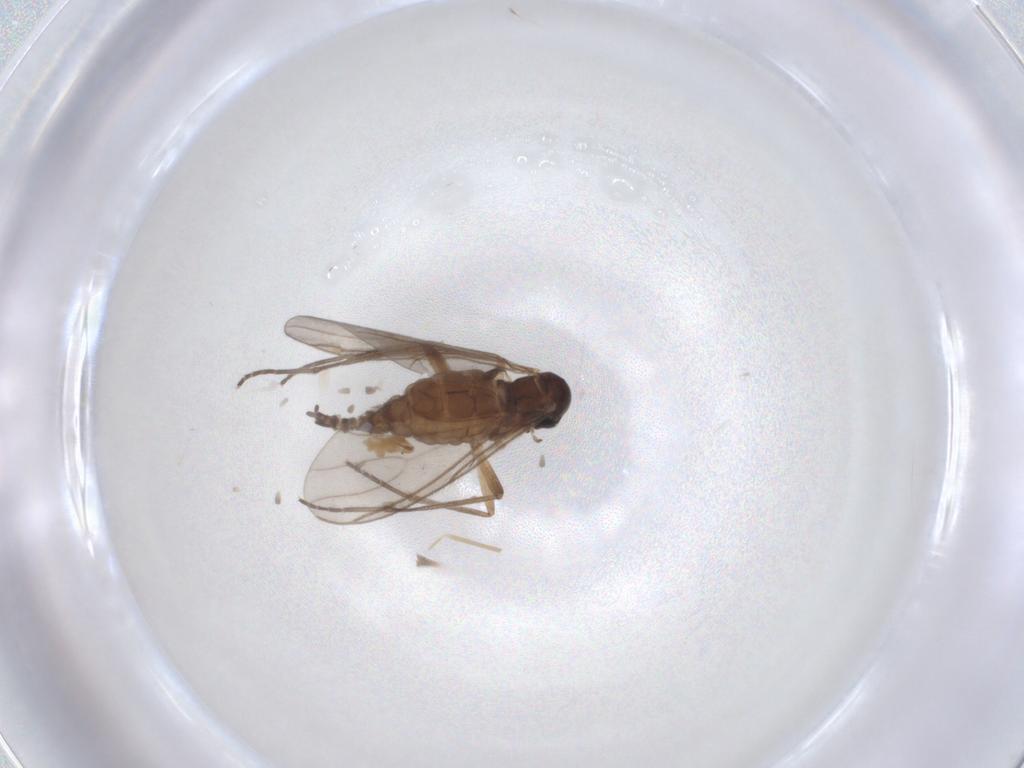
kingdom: Animalia
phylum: Arthropoda
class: Insecta
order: Diptera
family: Sciaridae
